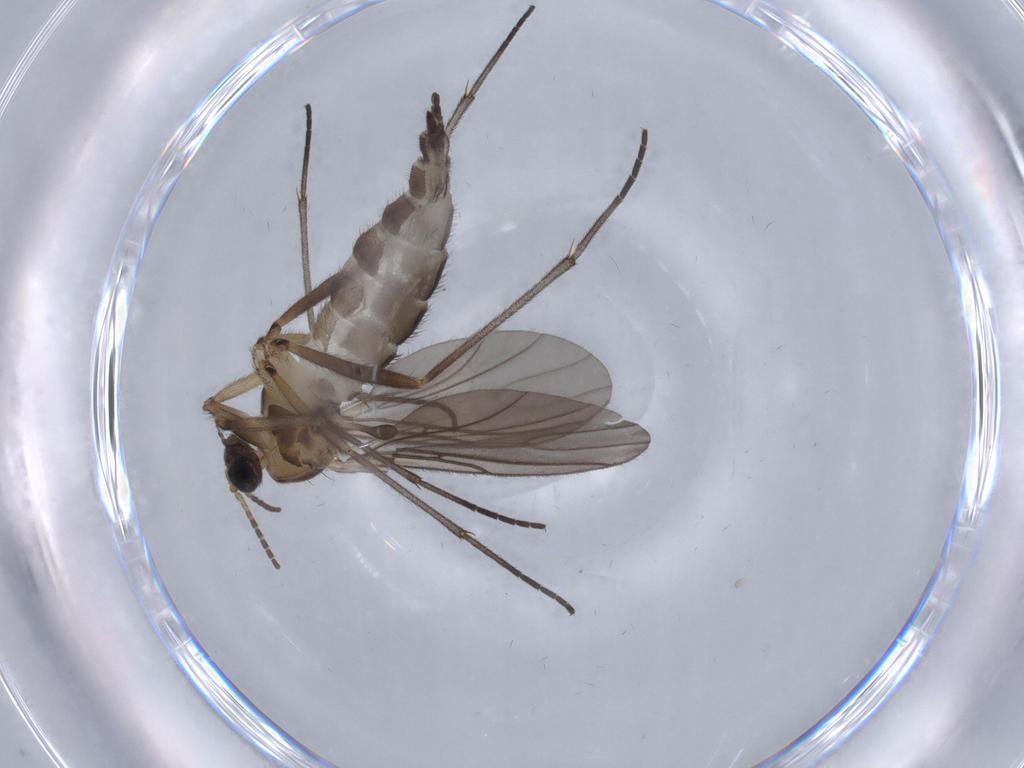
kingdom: Animalia
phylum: Arthropoda
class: Insecta
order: Diptera
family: Sciaridae
